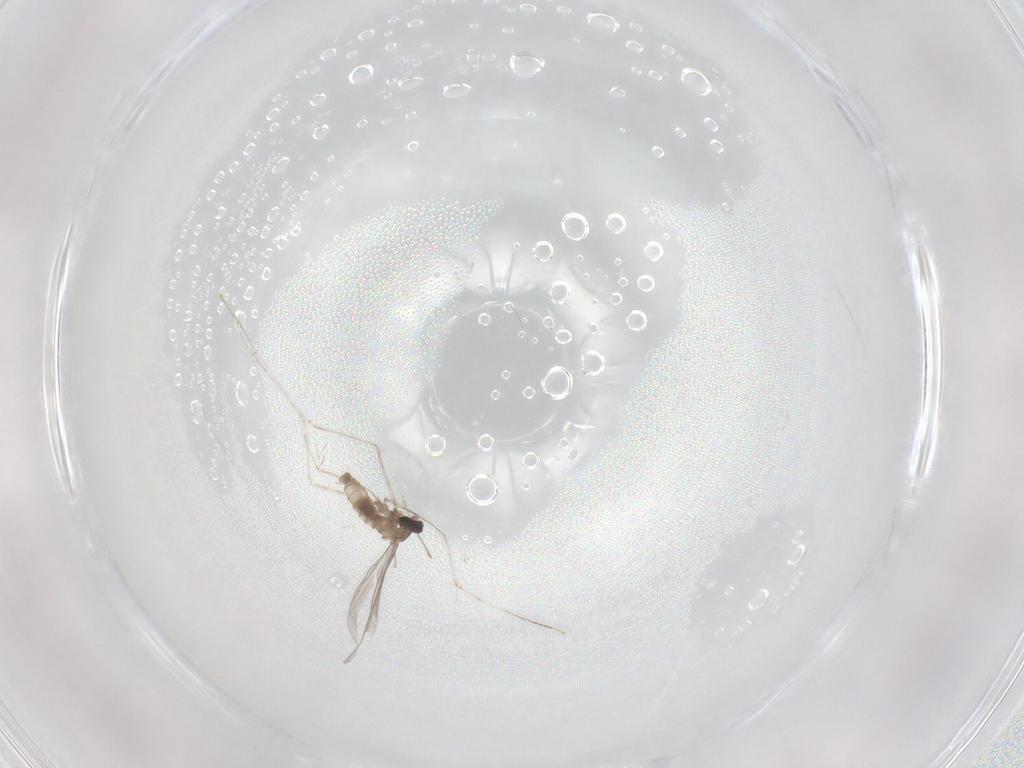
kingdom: Animalia
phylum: Arthropoda
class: Insecta
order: Diptera
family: Cecidomyiidae
